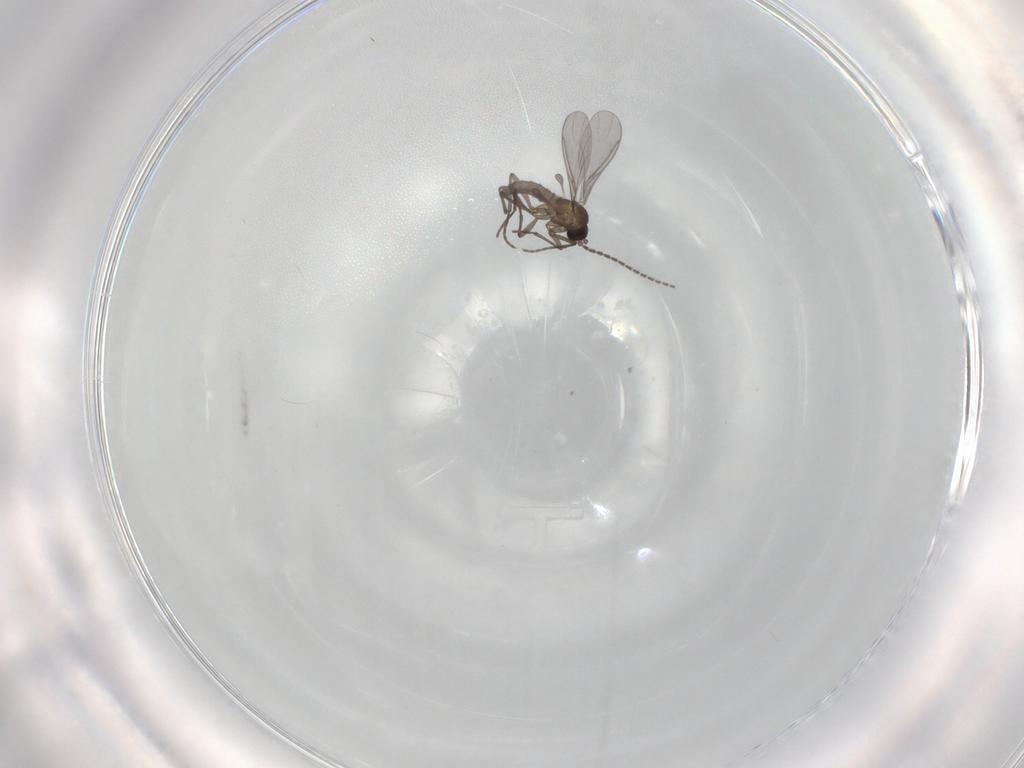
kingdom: Animalia
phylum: Arthropoda
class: Insecta
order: Diptera
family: Sciaridae
